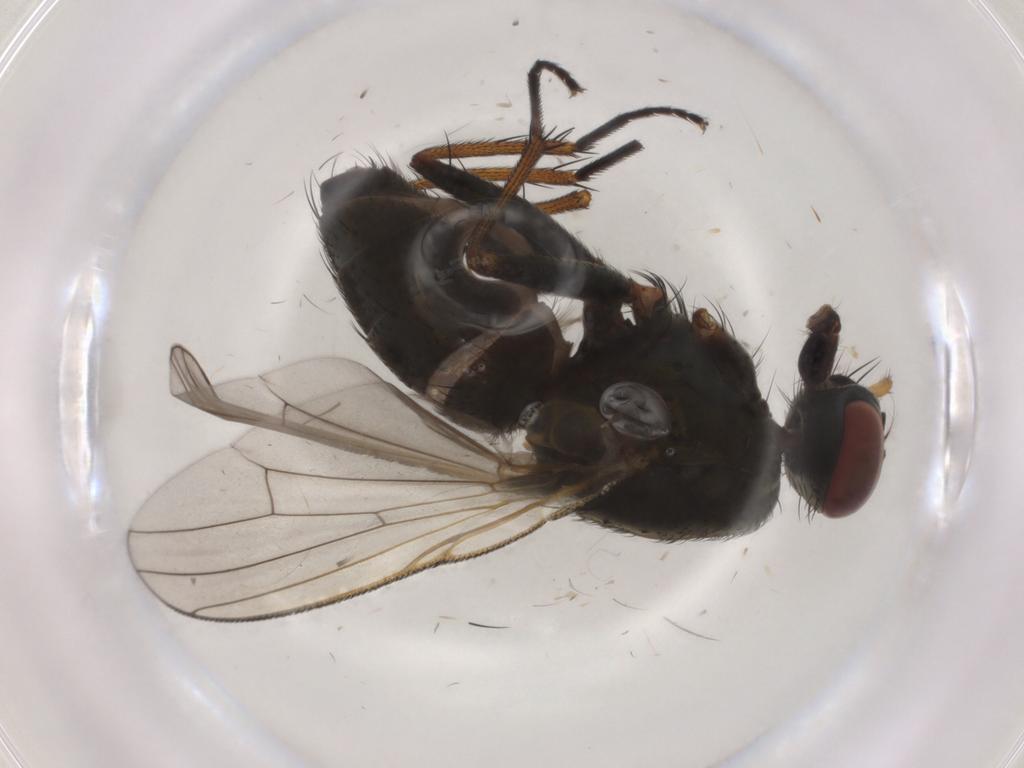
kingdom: Animalia
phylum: Arthropoda
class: Insecta
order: Diptera
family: Muscidae
